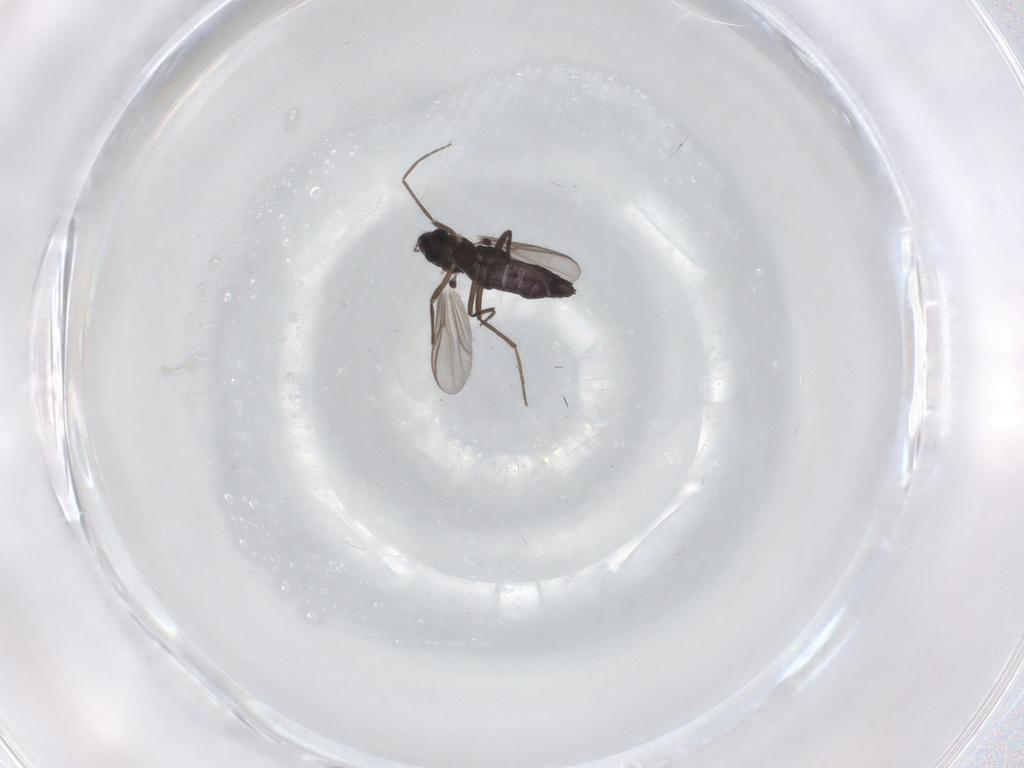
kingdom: Animalia
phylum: Arthropoda
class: Insecta
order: Diptera
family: Chironomidae
